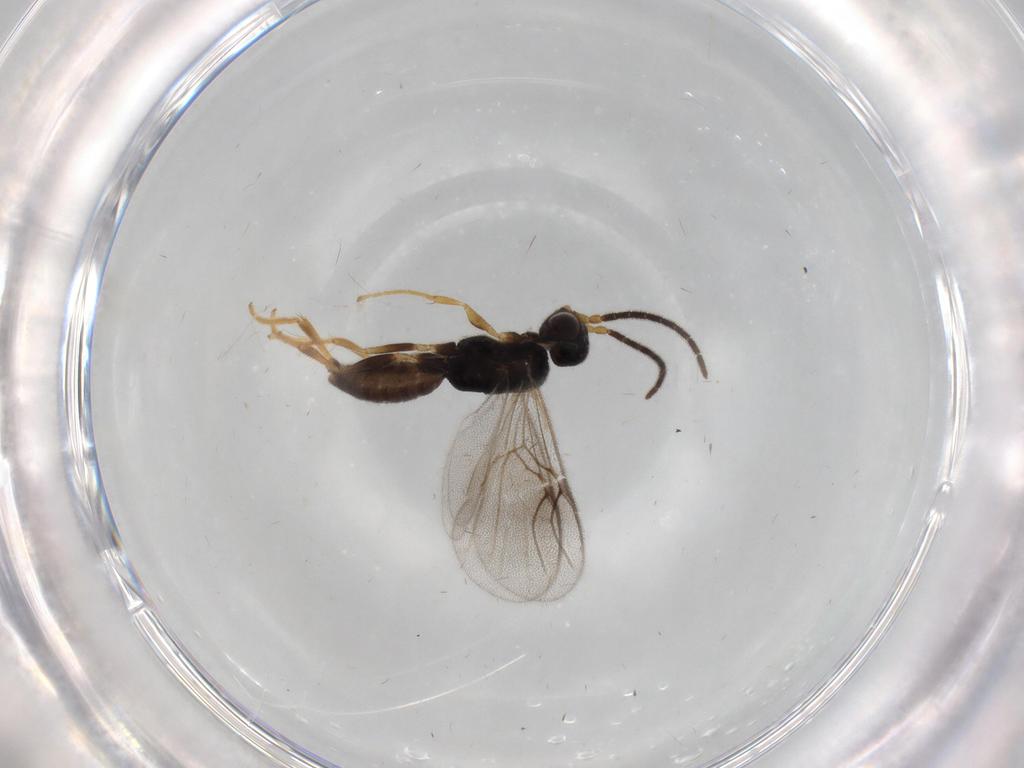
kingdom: Animalia
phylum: Arthropoda
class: Insecta
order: Hymenoptera
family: Dryinidae
